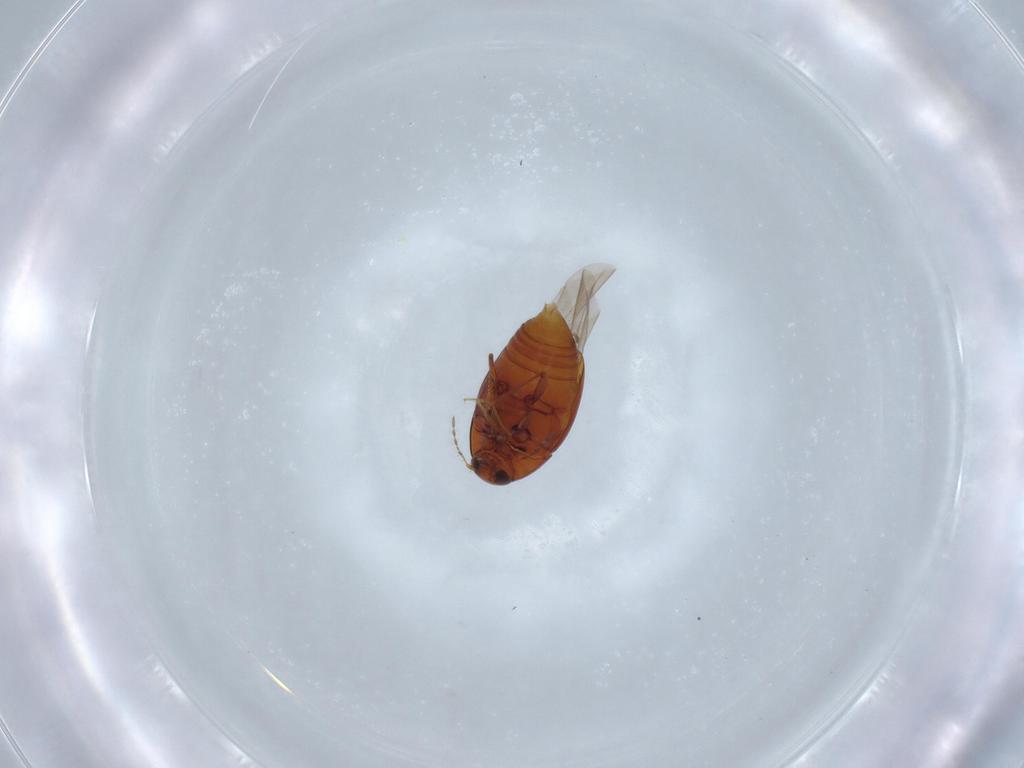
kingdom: Animalia
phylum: Arthropoda
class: Insecta
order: Coleoptera
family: Staphylinidae
